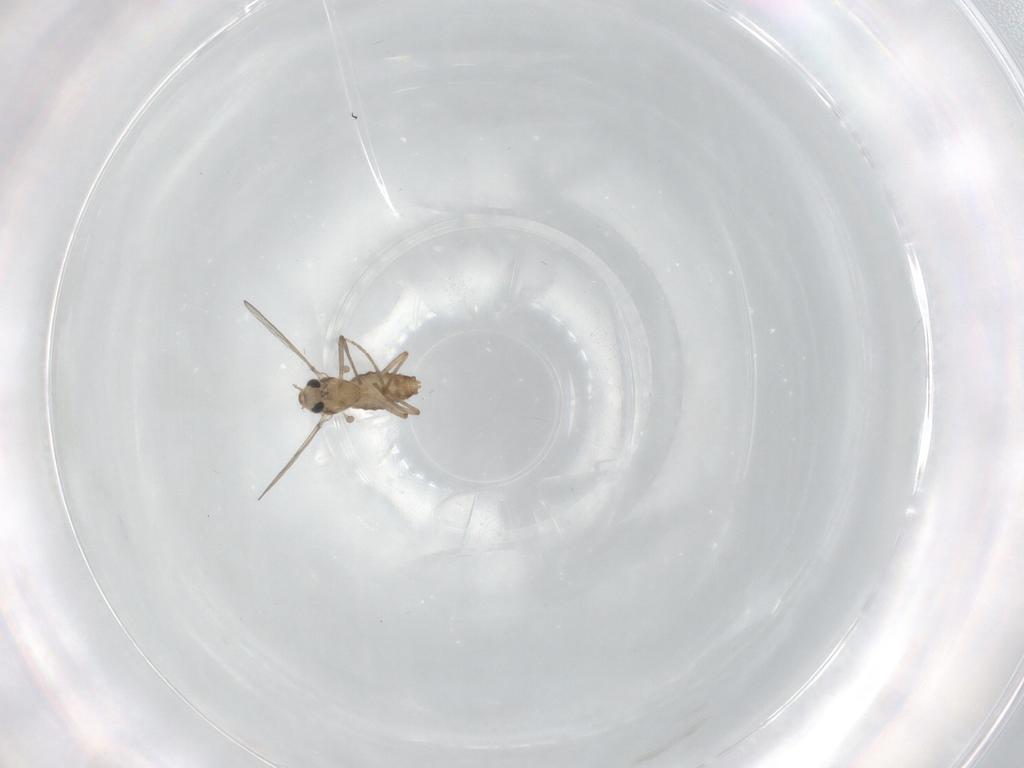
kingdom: Animalia
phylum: Arthropoda
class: Insecta
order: Diptera
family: Chironomidae
